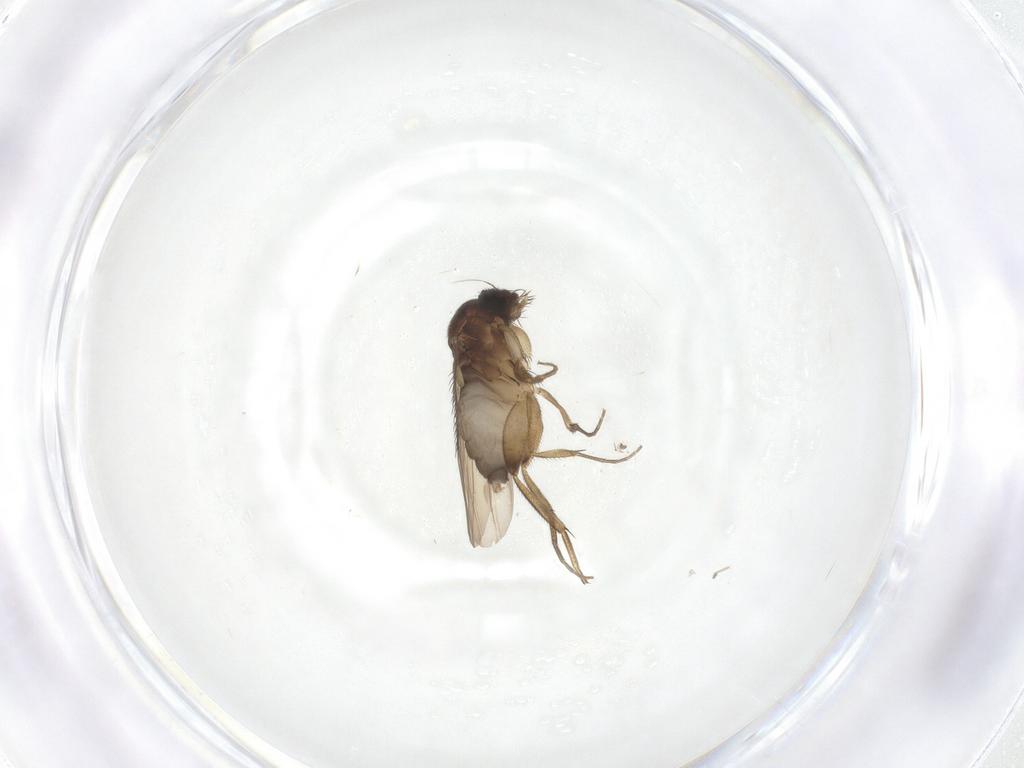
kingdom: Animalia
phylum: Arthropoda
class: Insecta
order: Diptera
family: Phoridae
